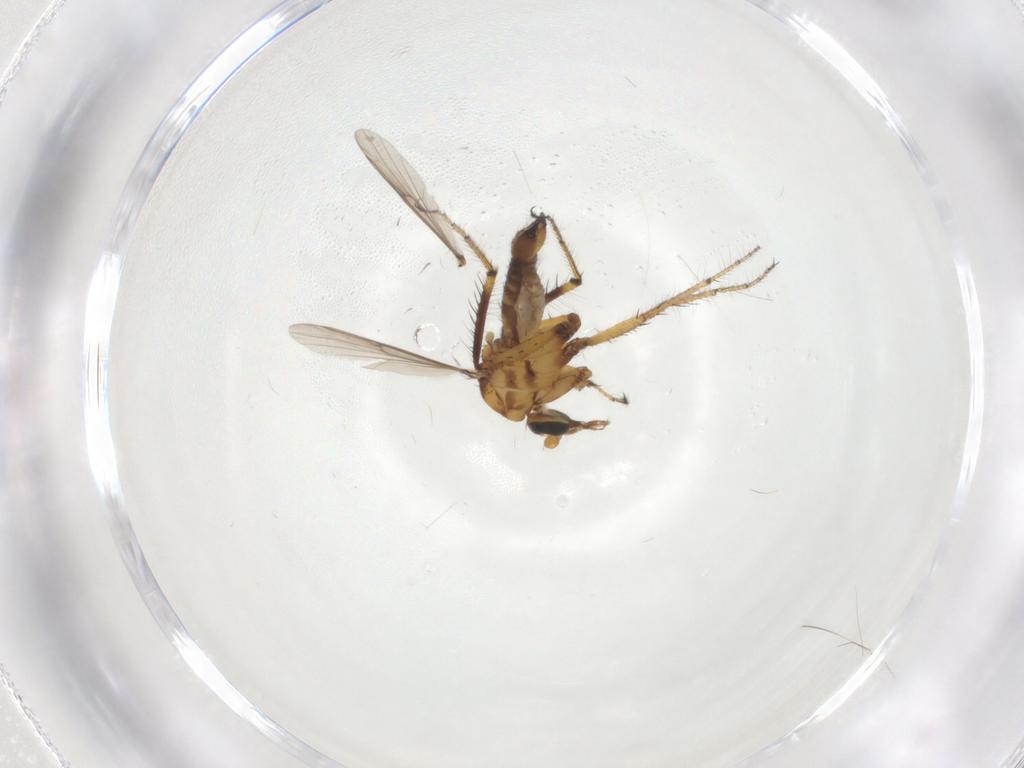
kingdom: Animalia
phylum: Arthropoda
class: Insecta
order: Diptera
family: Ceratopogonidae
